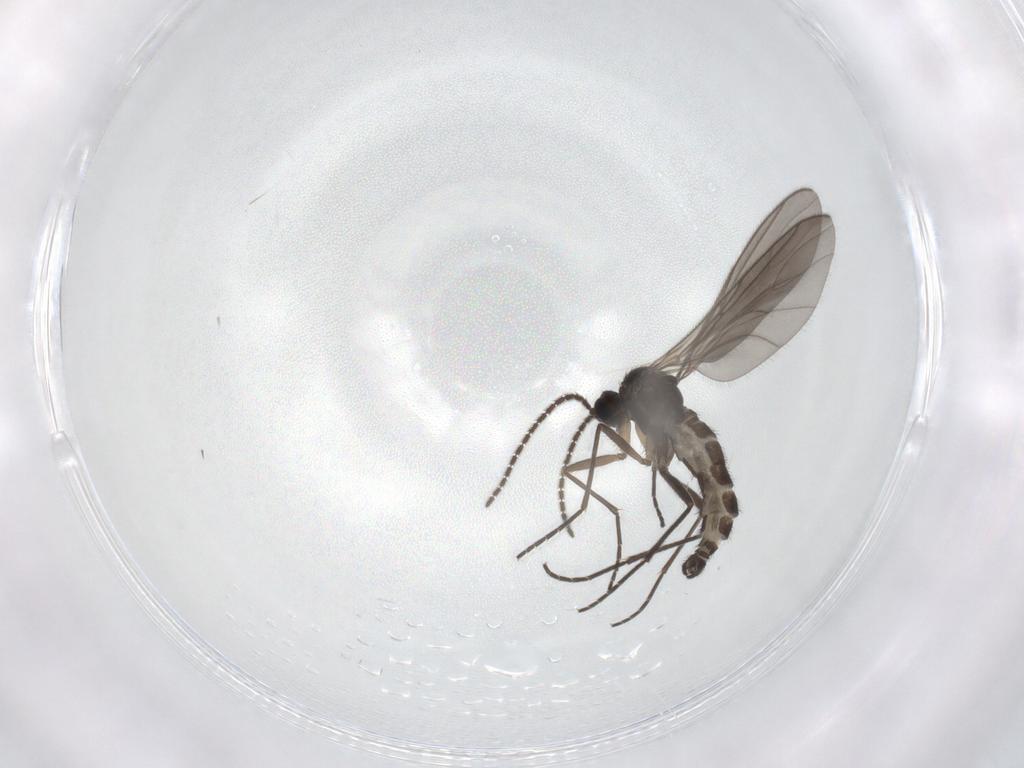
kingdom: Animalia
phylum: Arthropoda
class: Insecta
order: Diptera
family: Sciaridae
